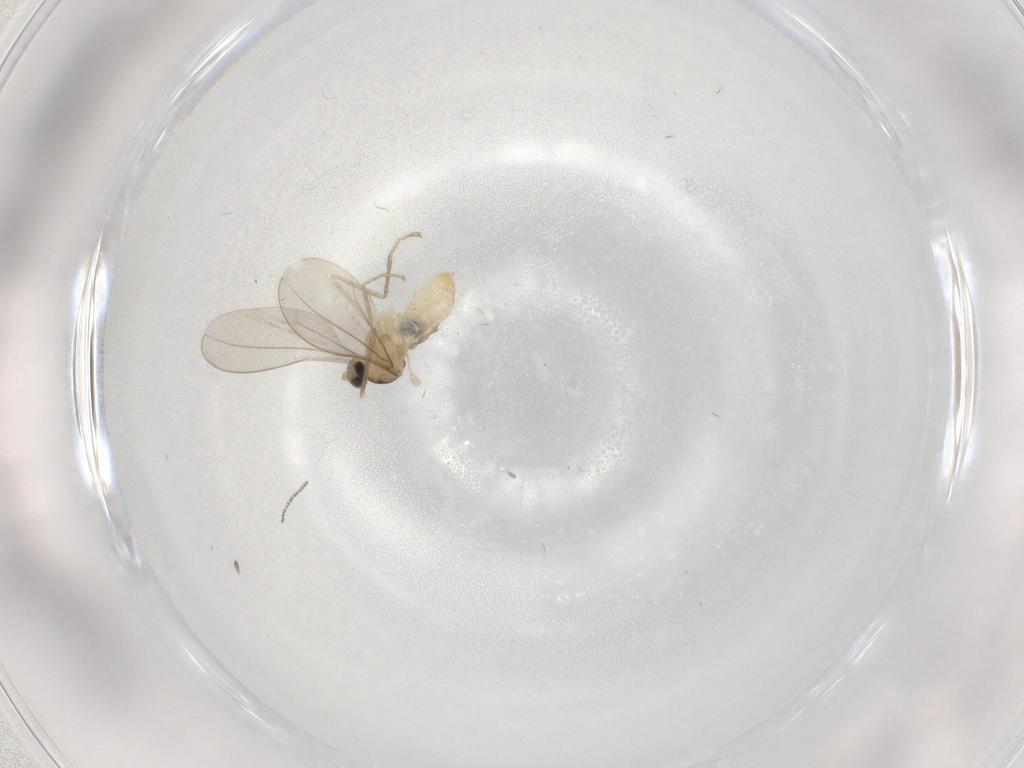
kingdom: Animalia
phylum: Arthropoda
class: Insecta
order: Diptera
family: Cecidomyiidae
